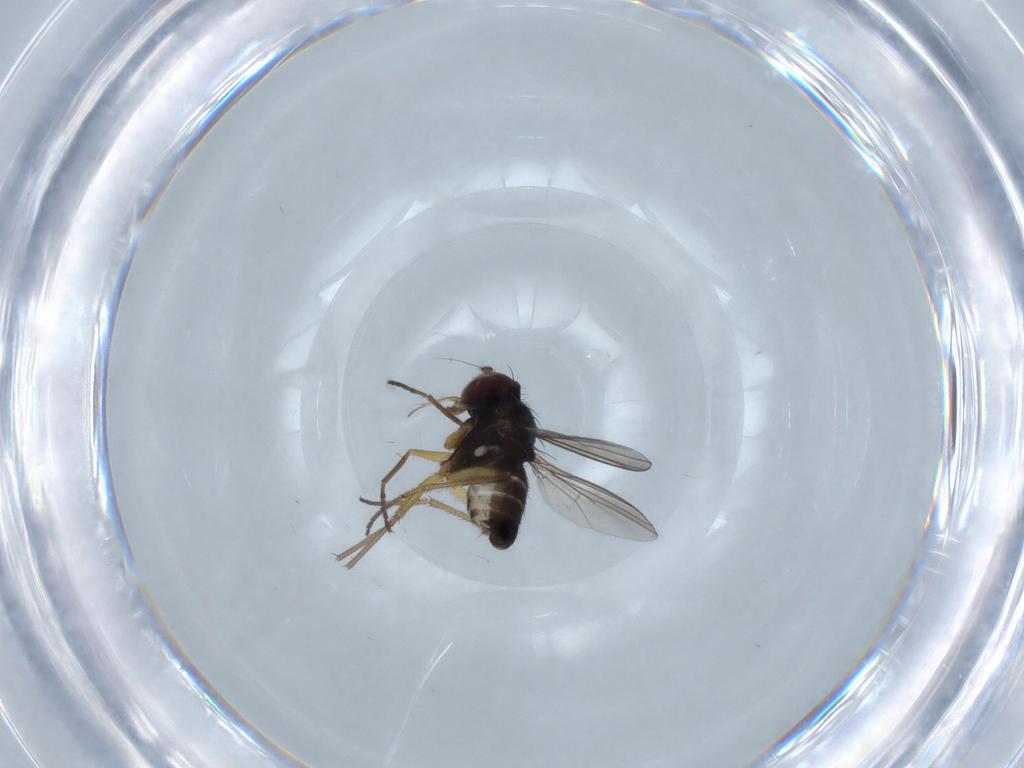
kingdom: Animalia
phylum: Arthropoda
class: Insecta
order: Diptera
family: Dolichopodidae
